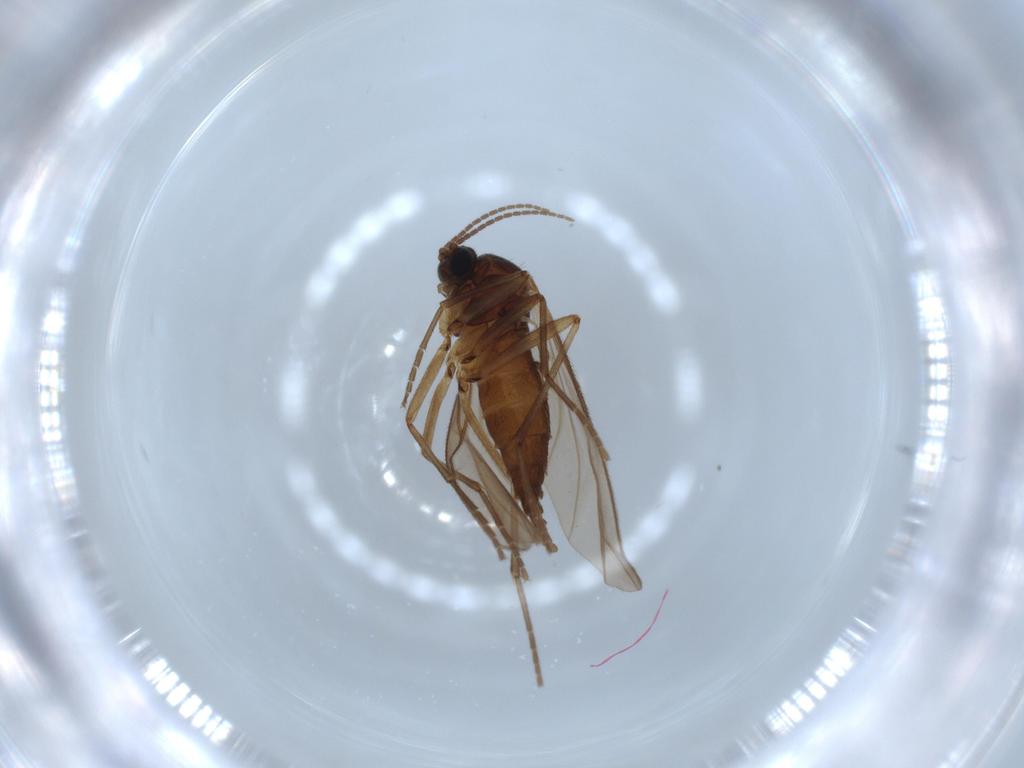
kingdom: Animalia
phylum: Arthropoda
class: Insecta
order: Diptera
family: Sciaridae
